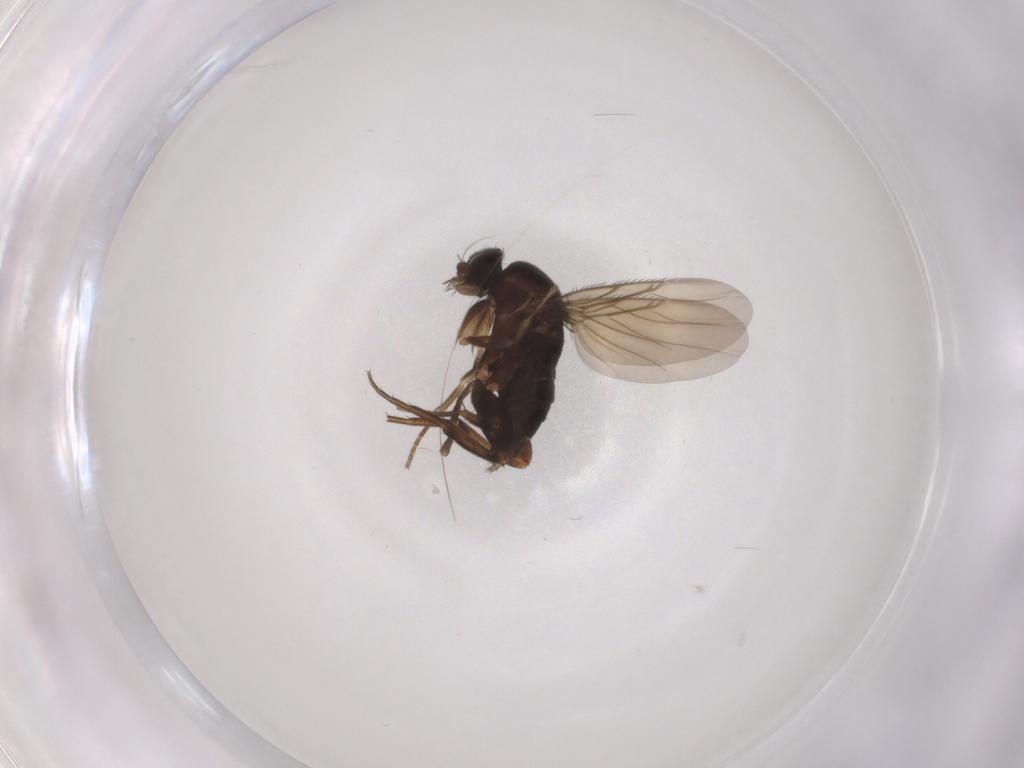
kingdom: Animalia
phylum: Arthropoda
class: Insecta
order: Diptera
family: Phoridae
